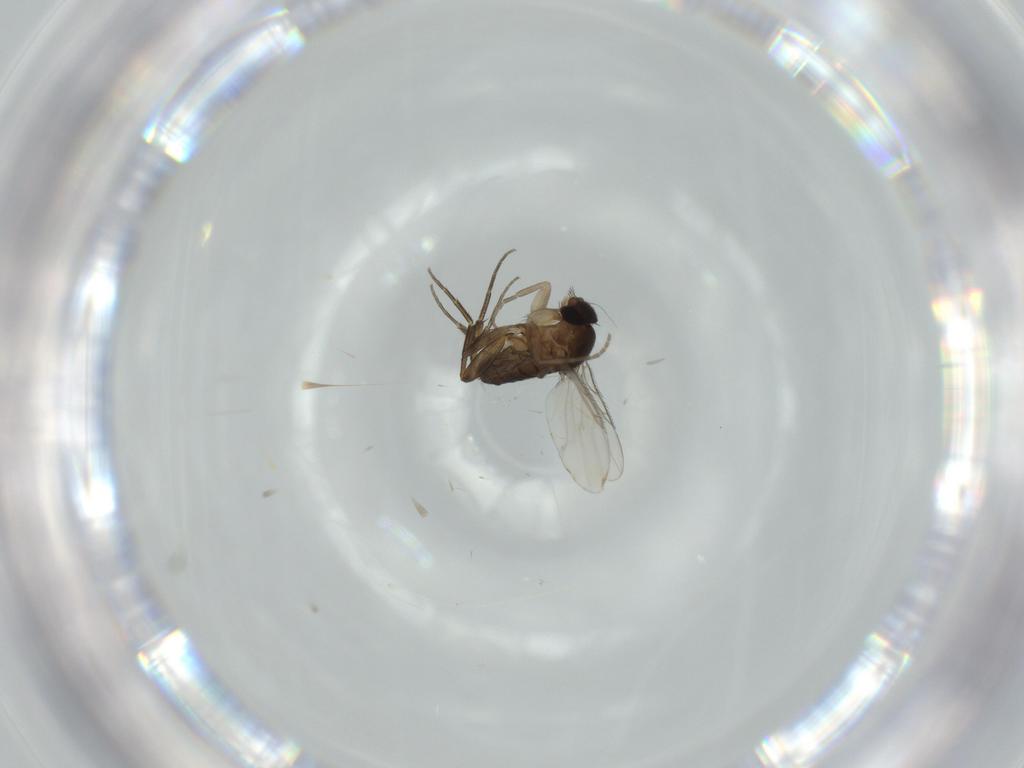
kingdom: Animalia
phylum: Arthropoda
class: Insecta
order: Diptera
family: Phoridae
